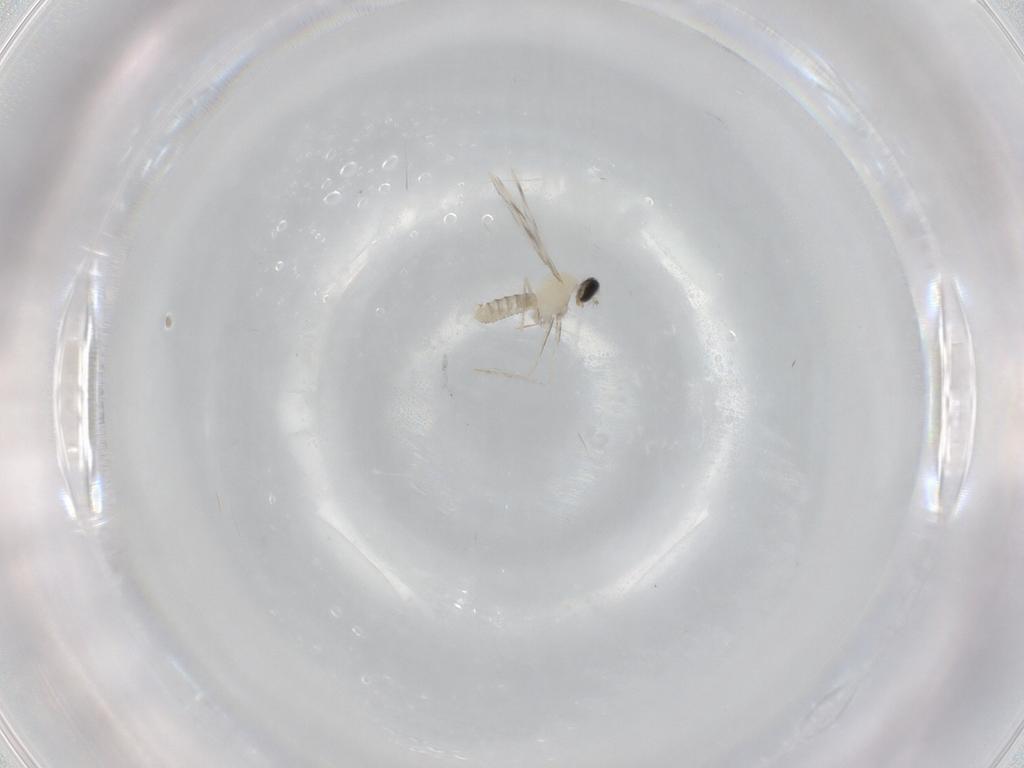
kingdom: Animalia
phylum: Arthropoda
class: Insecta
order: Diptera
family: Cecidomyiidae
